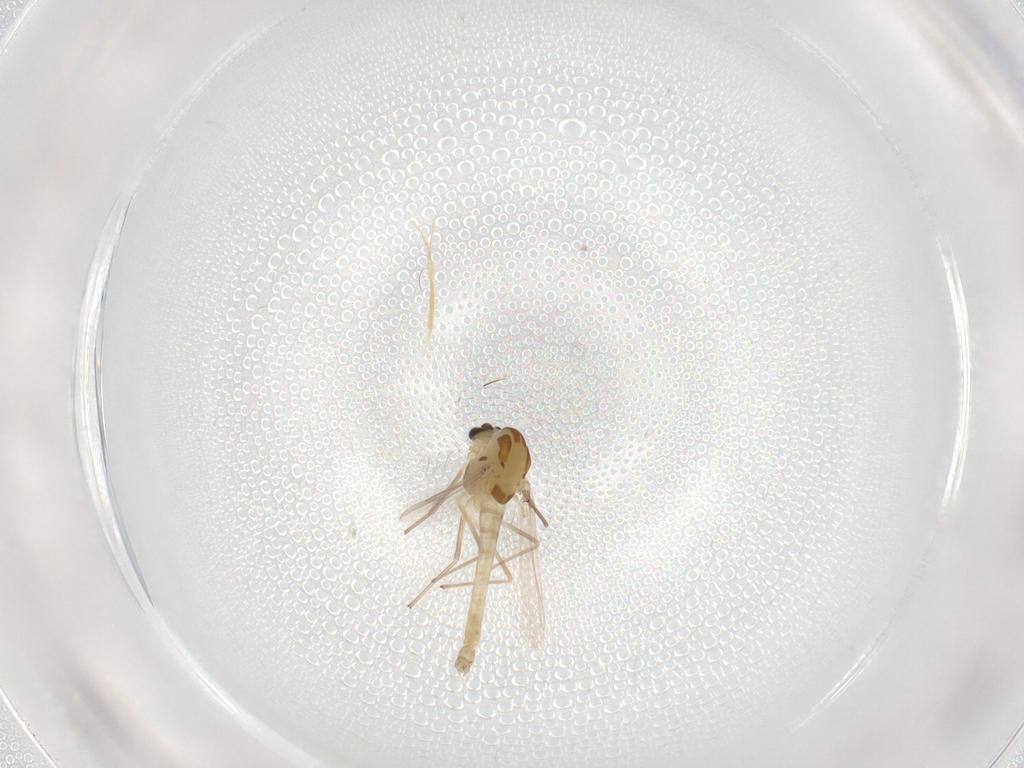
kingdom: Animalia
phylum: Arthropoda
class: Insecta
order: Diptera
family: Chironomidae
